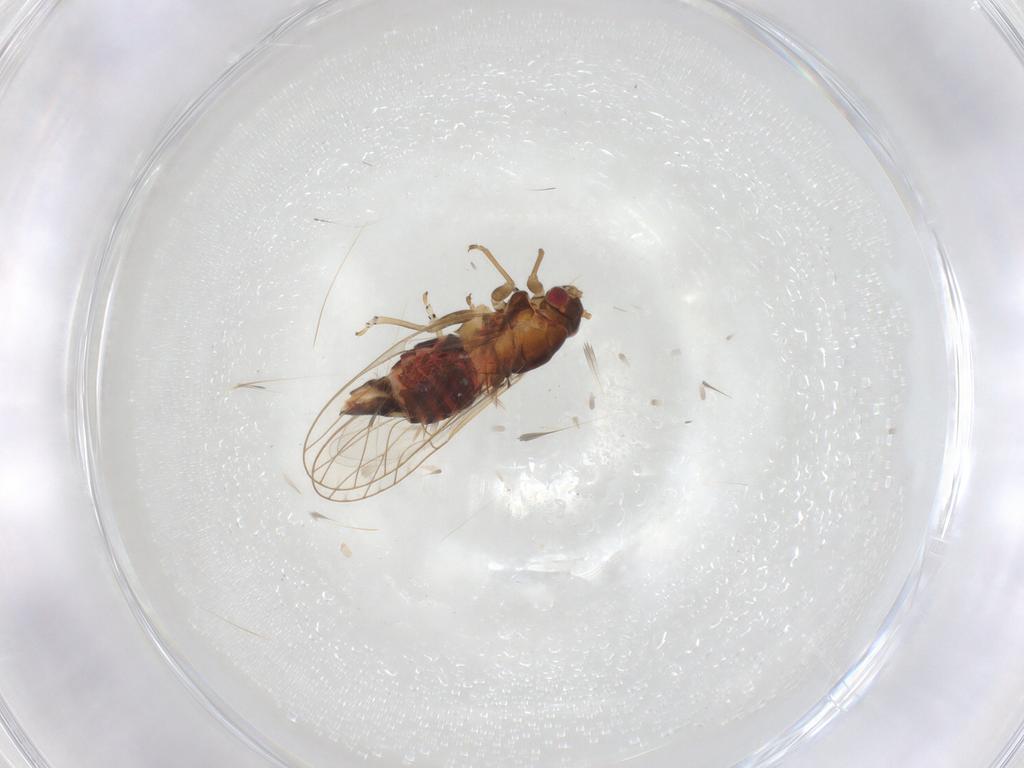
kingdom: Animalia
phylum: Arthropoda
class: Insecta
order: Hemiptera
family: Psyllidae
